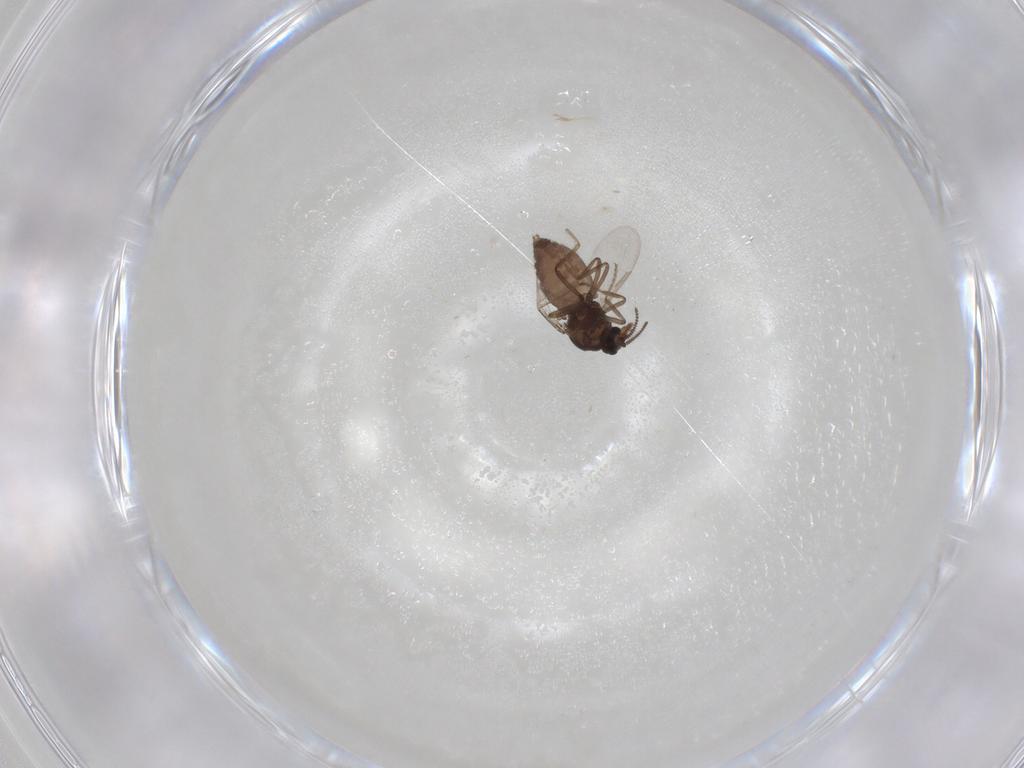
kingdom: Animalia
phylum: Arthropoda
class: Insecta
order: Diptera
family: Ceratopogonidae
